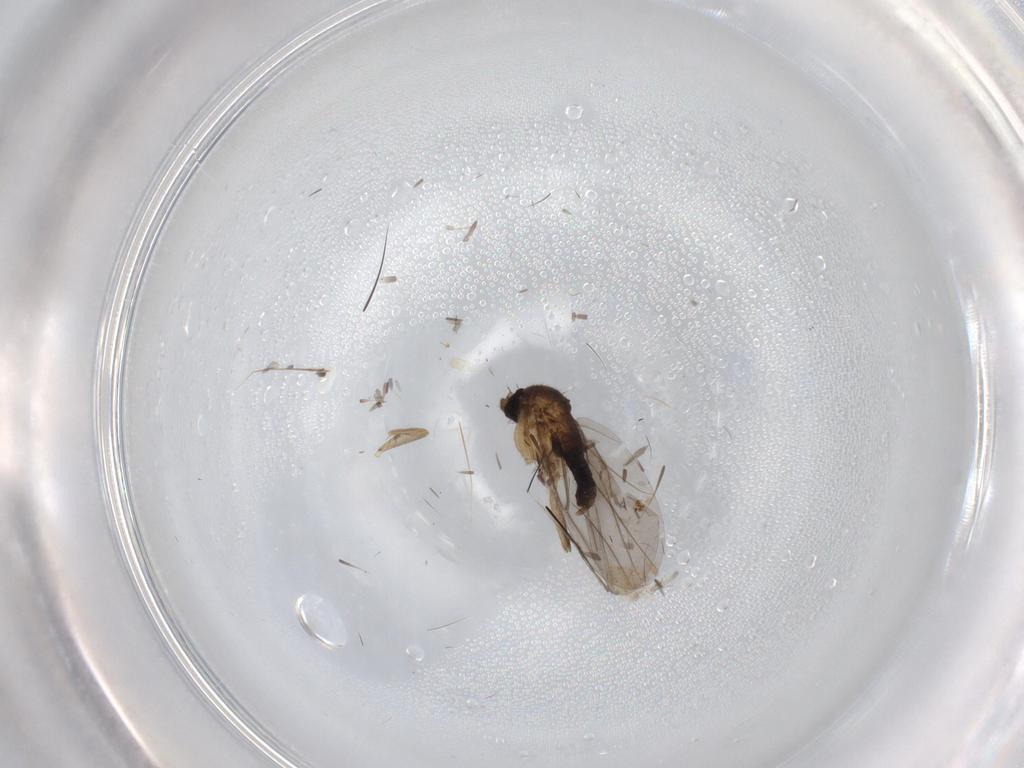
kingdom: Animalia
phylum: Arthropoda
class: Insecta
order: Diptera
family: Phoridae
